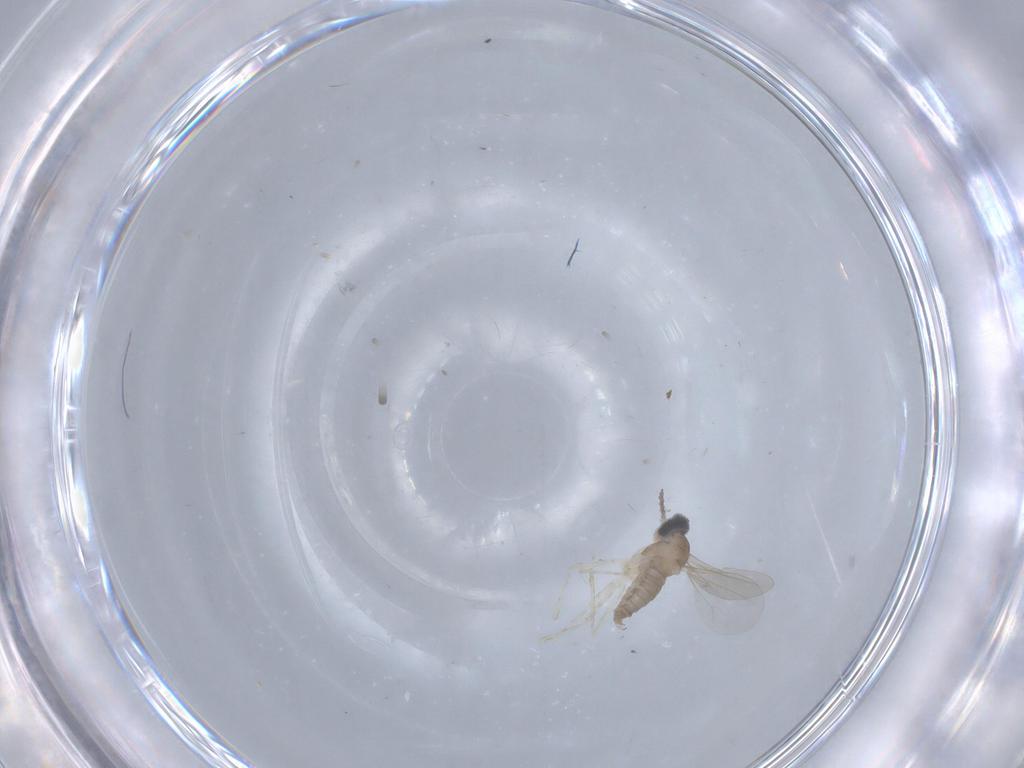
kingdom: Animalia
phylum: Arthropoda
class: Insecta
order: Diptera
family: Cecidomyiidae
